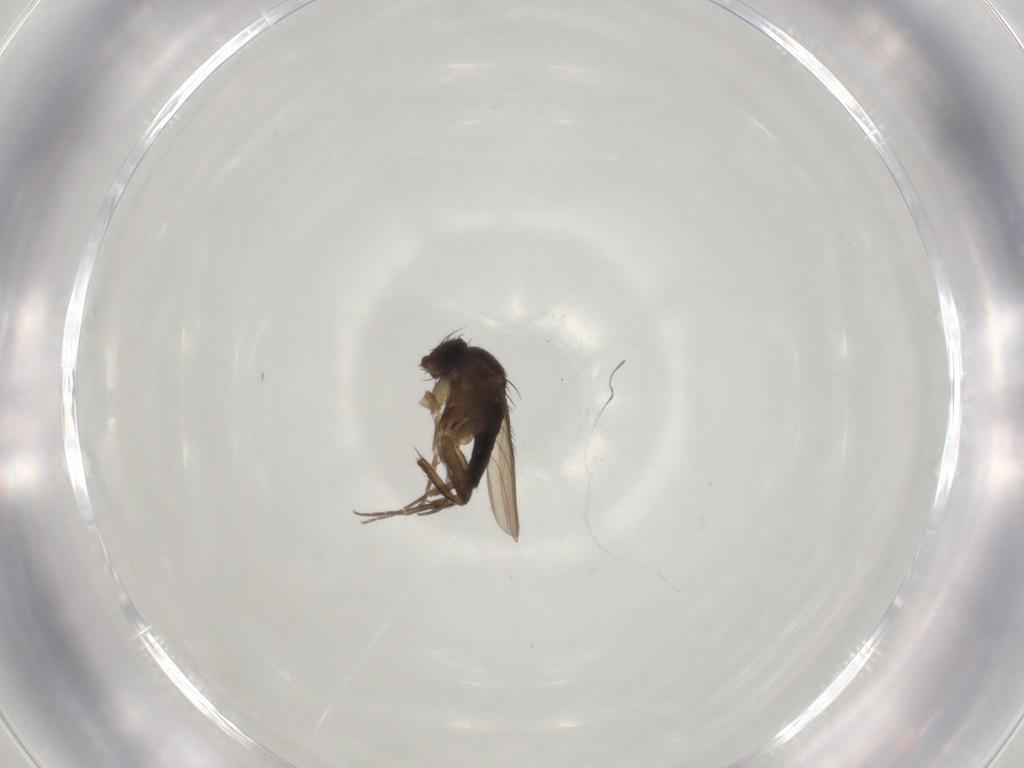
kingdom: Animalia
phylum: Arthropoda
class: Insecta
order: Diptera
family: Phoridae
